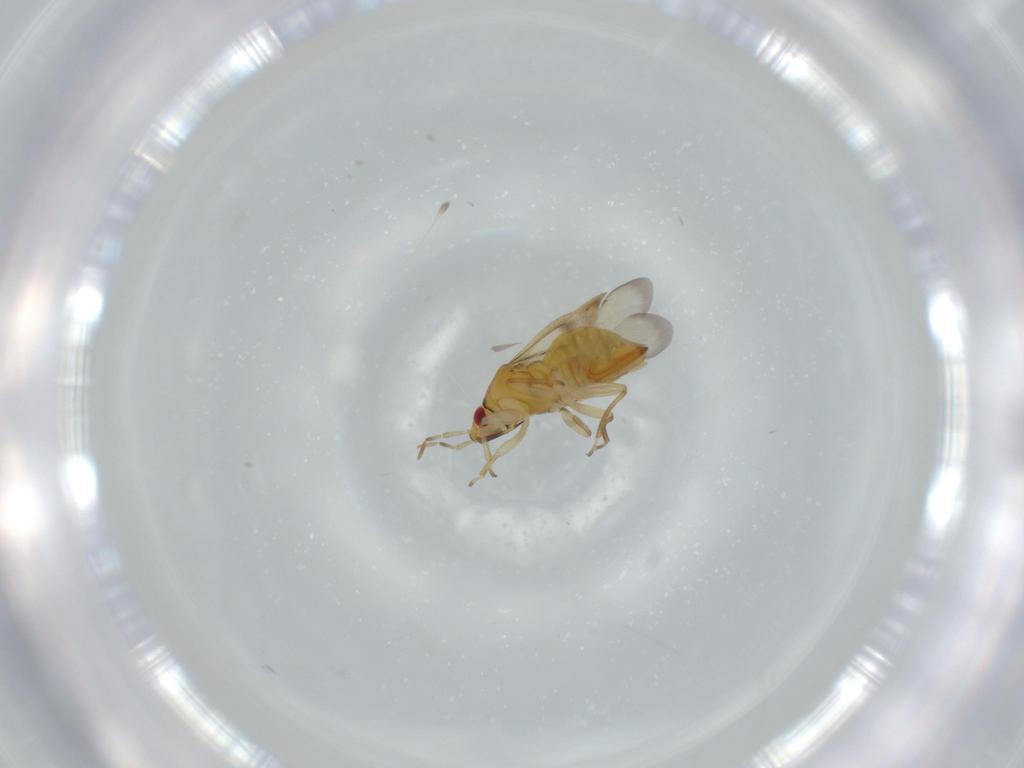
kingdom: Animalia
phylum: Arthropoda
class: Insecta
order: Hemiptera
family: Anthocoridae
